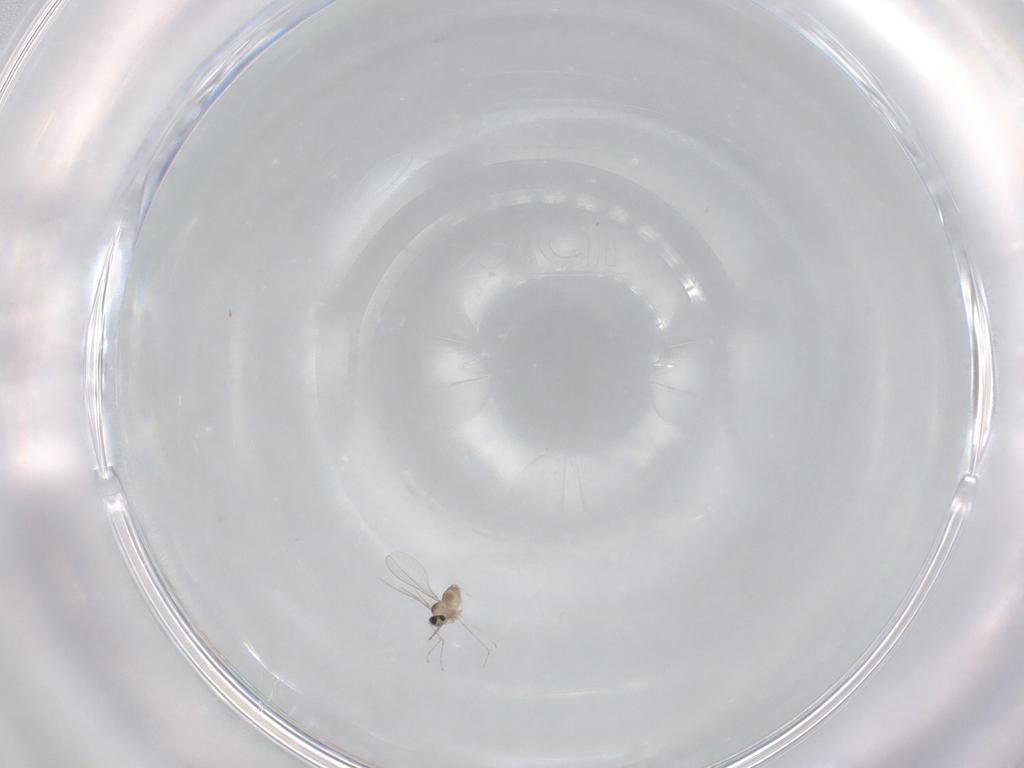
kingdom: Animalia
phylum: Arthropoda
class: Insecta
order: Diptera
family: Cecidomyiidae
